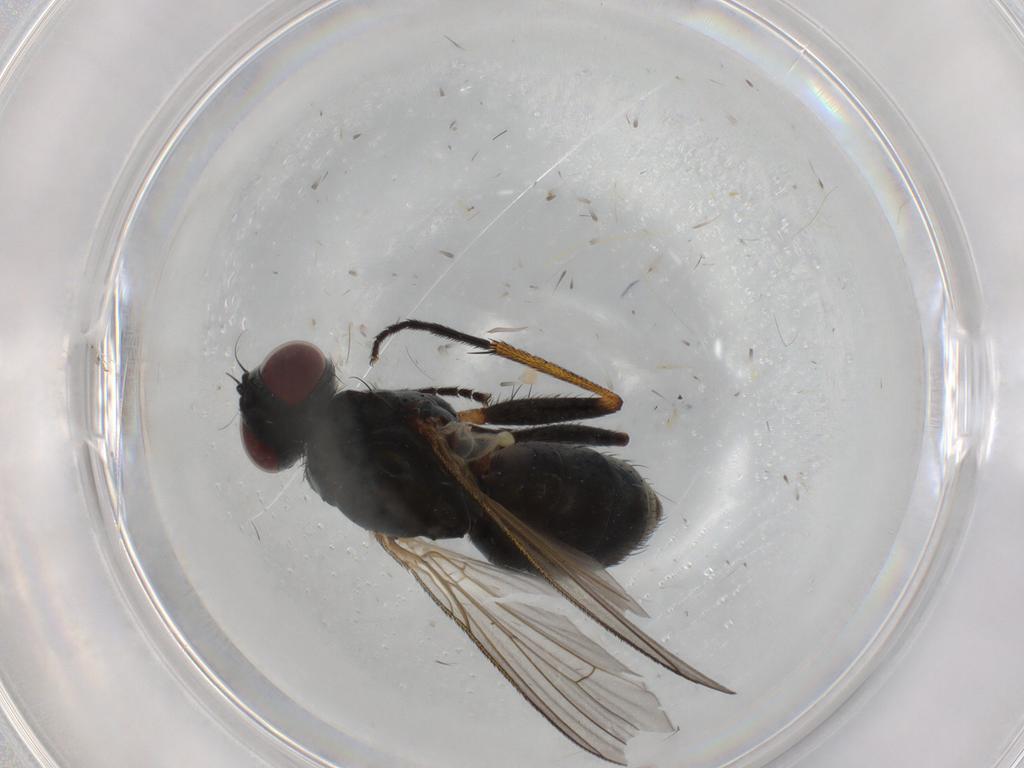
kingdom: Animalia
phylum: Arthropoda
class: Insecta
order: Diptera
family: Muscidae
